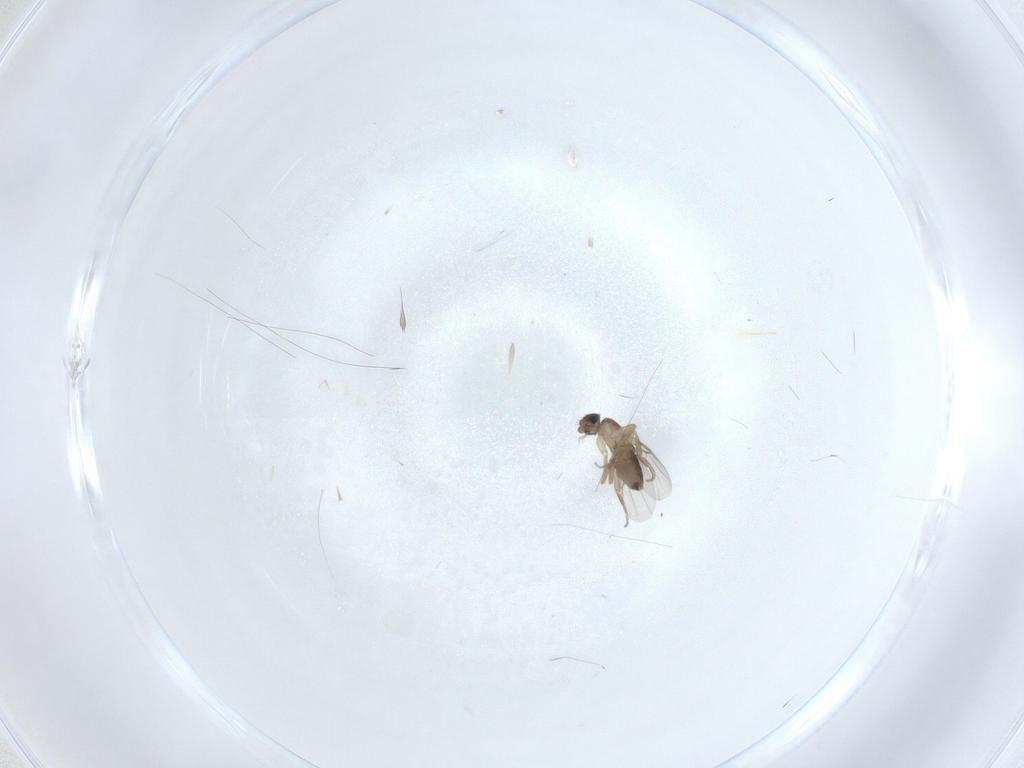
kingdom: Animalia
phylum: Arthropoda
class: Insecta
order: Diptera
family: Phoridae
